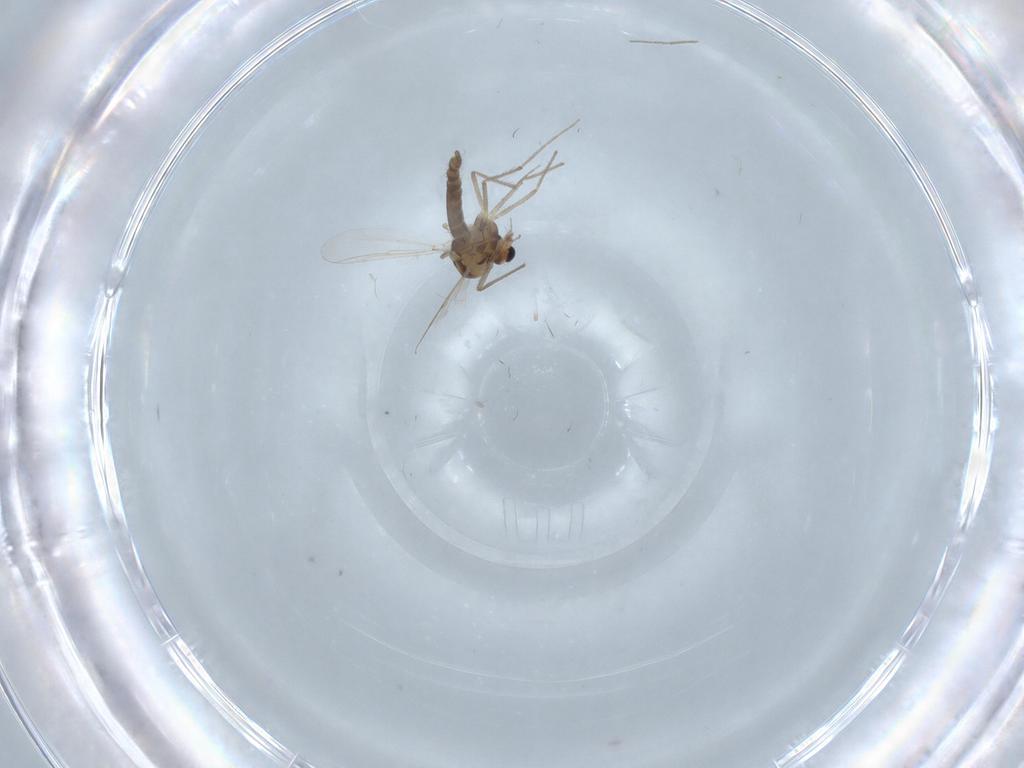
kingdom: Animalia
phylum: Arthropoda
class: Insecta
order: Diptera
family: Chironomidae
